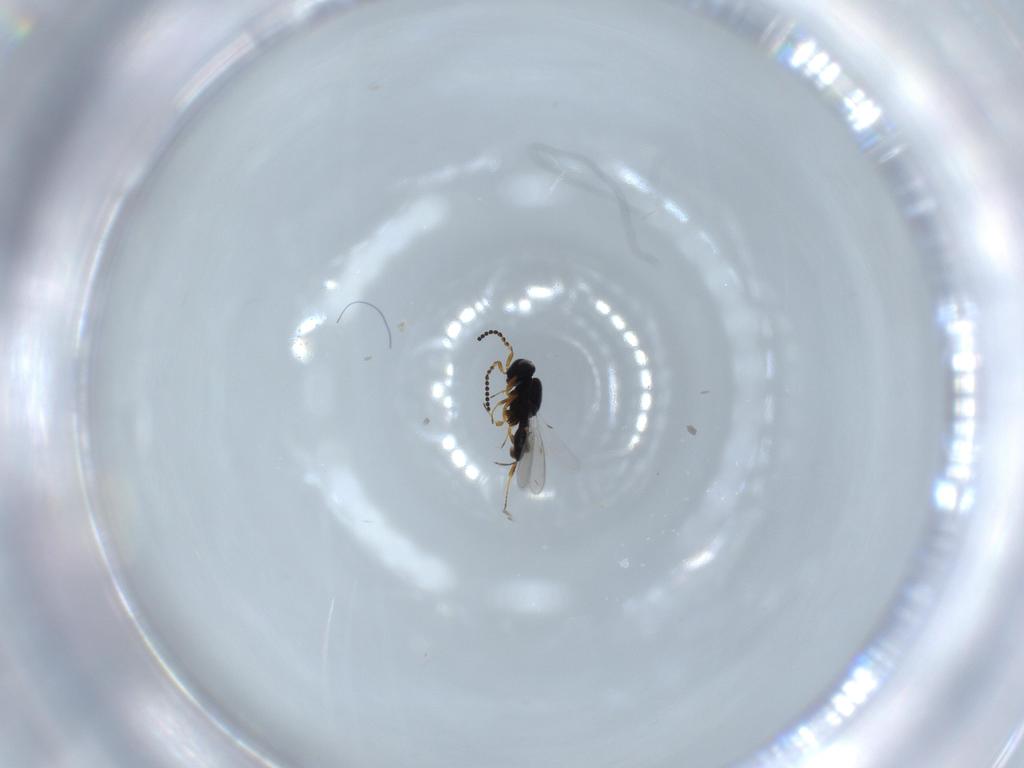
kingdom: Animalia
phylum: Arthropoda
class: Insecta
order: Hymenoptera
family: Scelionidae
